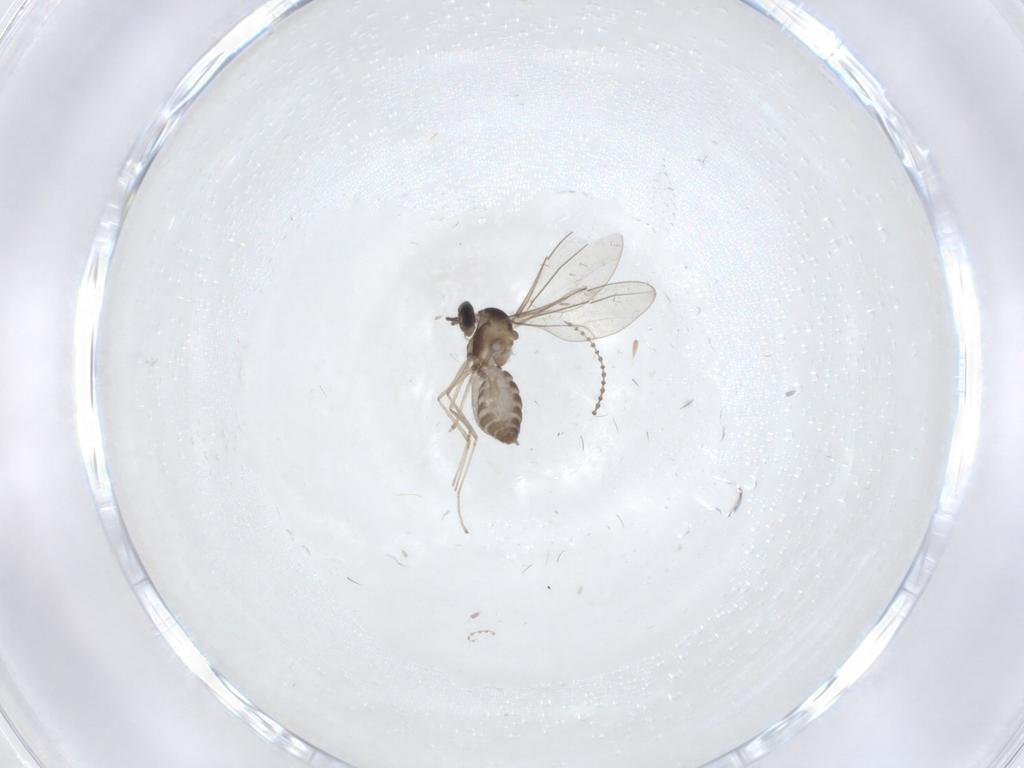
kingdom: Animalia
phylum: Arthropoda
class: Insecta
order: Diptera
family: Cecidomyiidae
